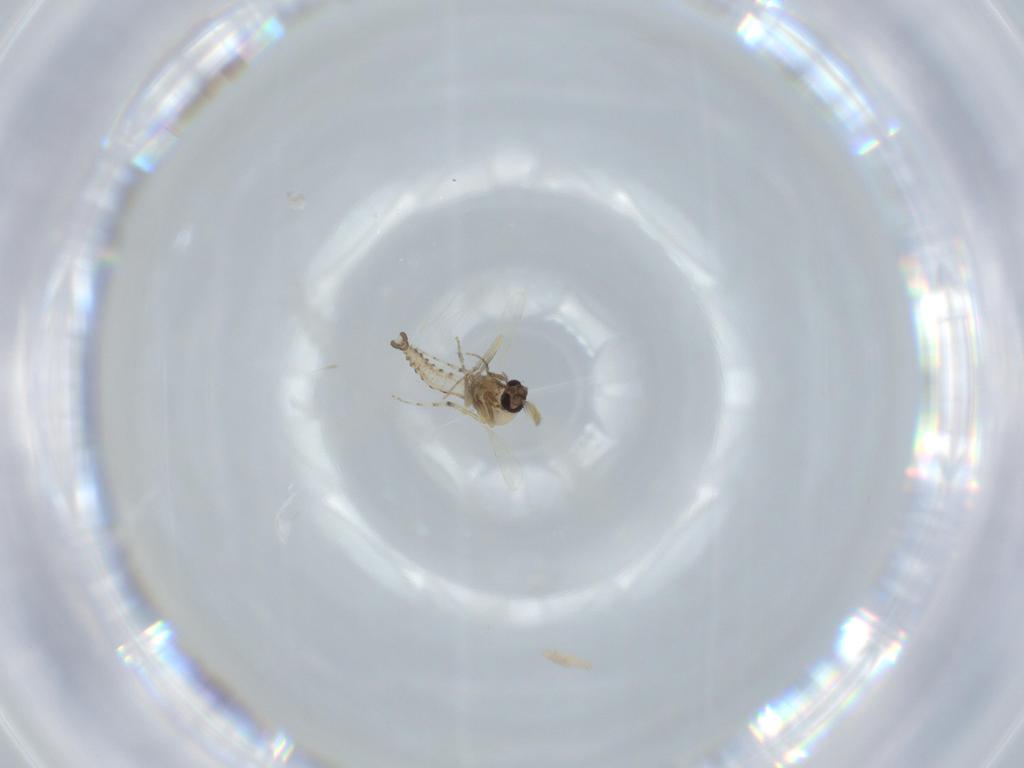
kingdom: Animalia
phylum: Arthropoda
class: Insecta
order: Diptera
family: Ceratopogonidae
